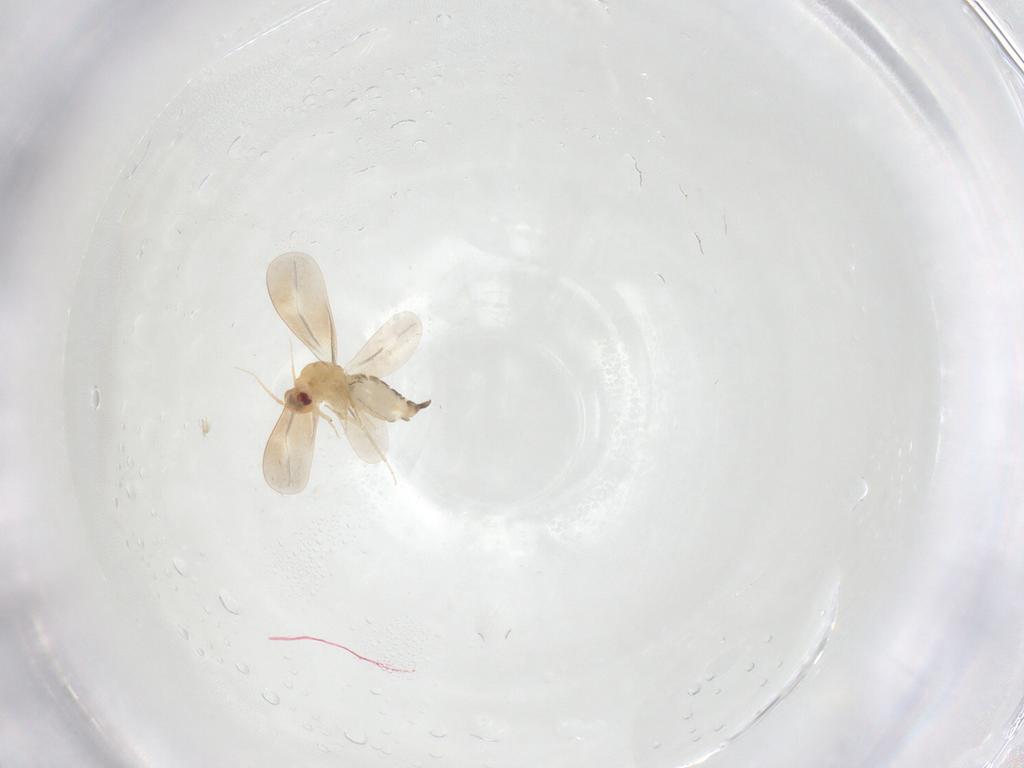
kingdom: Animalia
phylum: Arthropoda
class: Insecta
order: Hemiptera
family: Aleyrodidae
